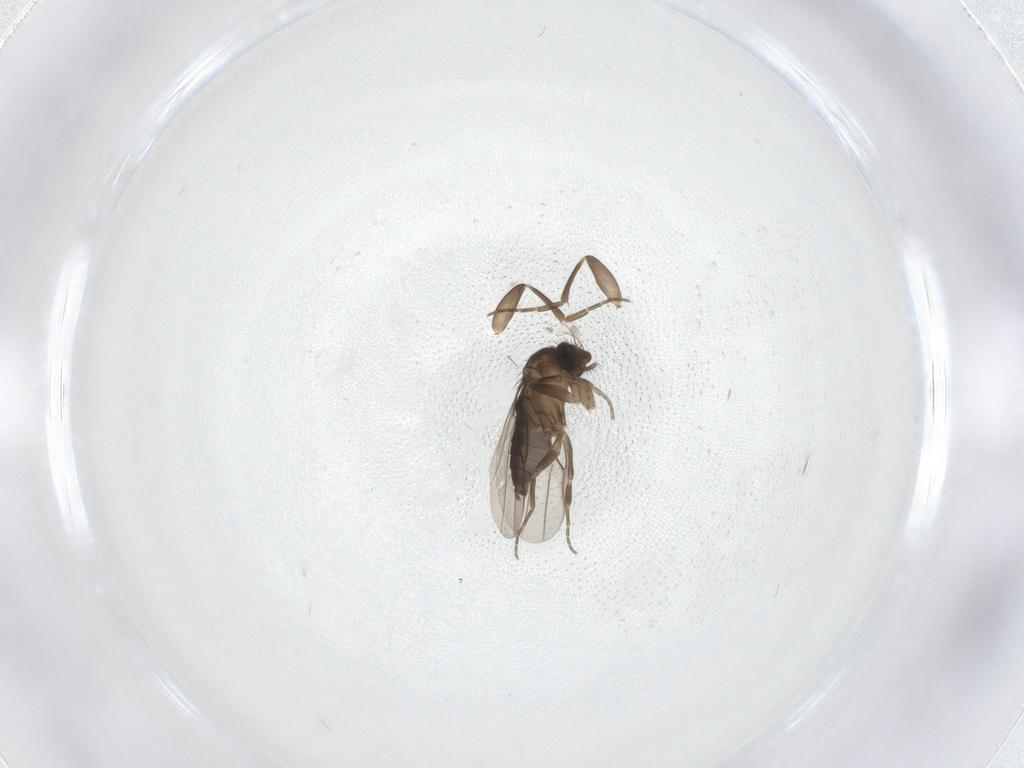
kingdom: Animalia
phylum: Arthropoda
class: Insecta
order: Diptera
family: Phoridae
